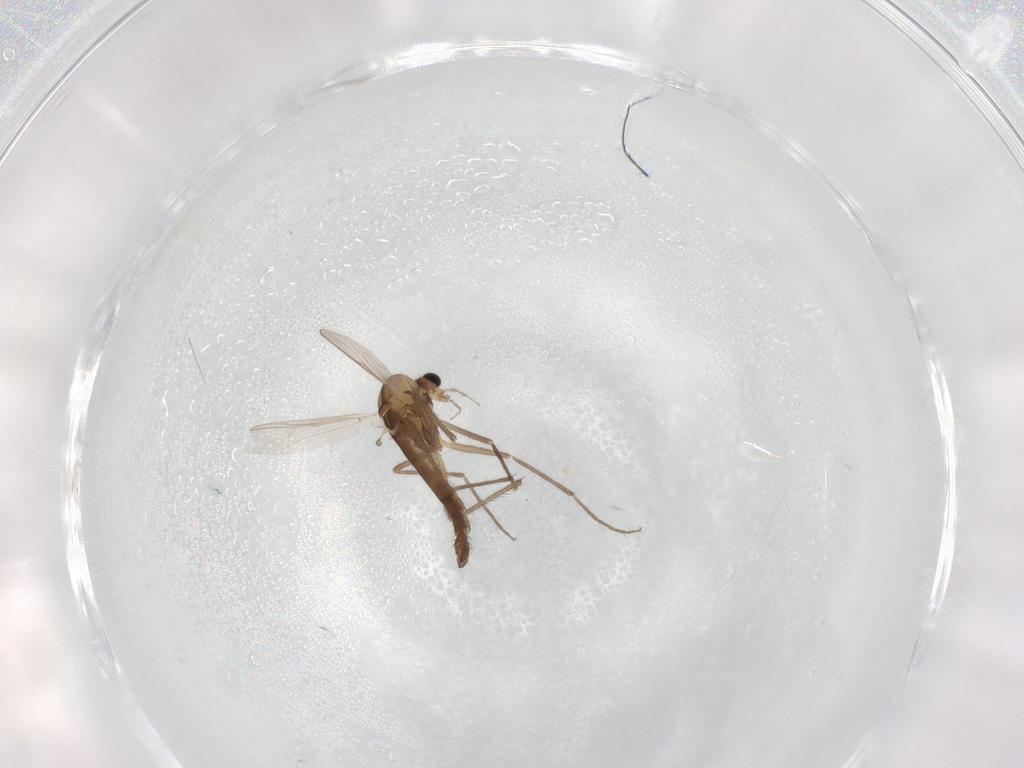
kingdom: Animalia
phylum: Arthropoda
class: Insecta
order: Diptera
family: Chironomidae
